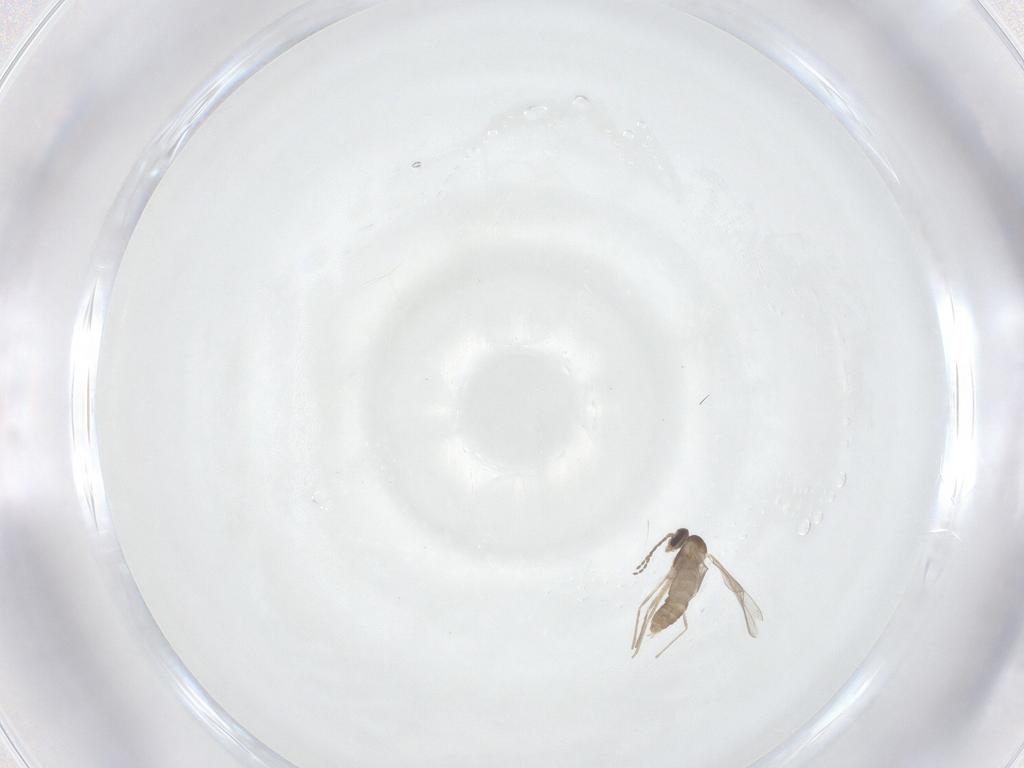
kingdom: Animalia
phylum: Arthropoda
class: Insecta
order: Diptera
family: Cecidomyiidae
